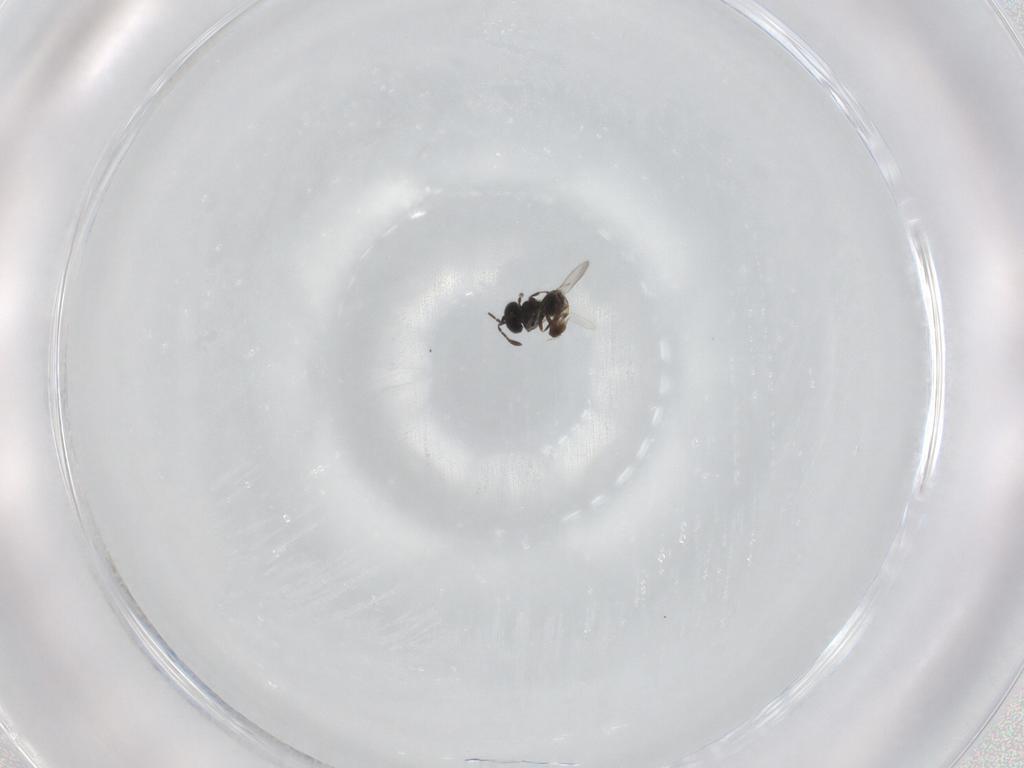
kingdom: Animalia
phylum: Arthropoda
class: Insecta
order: Hymenoptera
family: Scelionidae
